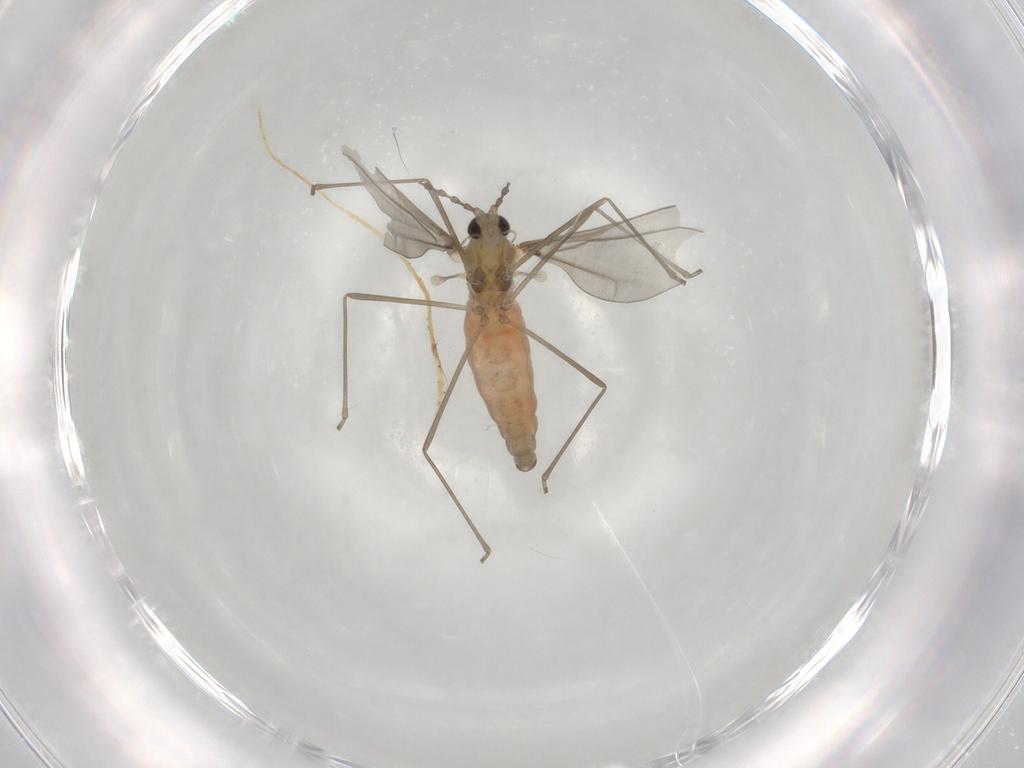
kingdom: Animalia
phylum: Arthropoda
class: Insecta
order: Diptera
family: Cecidomyiidae
